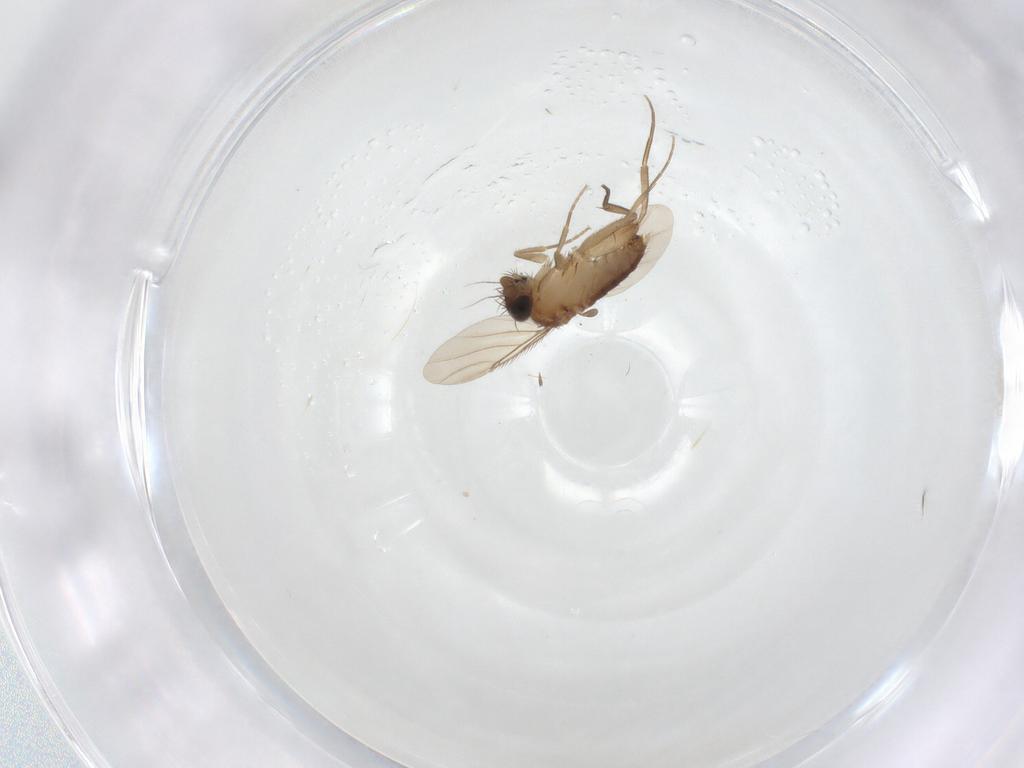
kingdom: Animalia
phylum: Arthropoda
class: Insecta
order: Diptera
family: Phoridae
